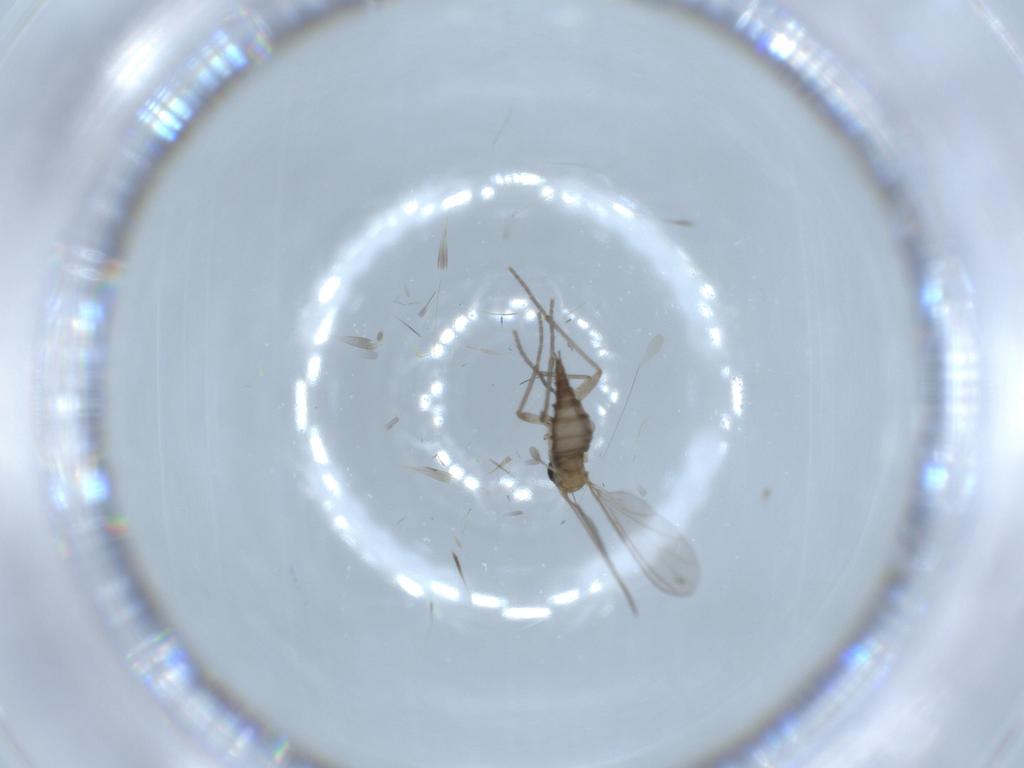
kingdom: Animalia
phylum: Arthropoda
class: Insecta
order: Diptera
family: Sciaridae
